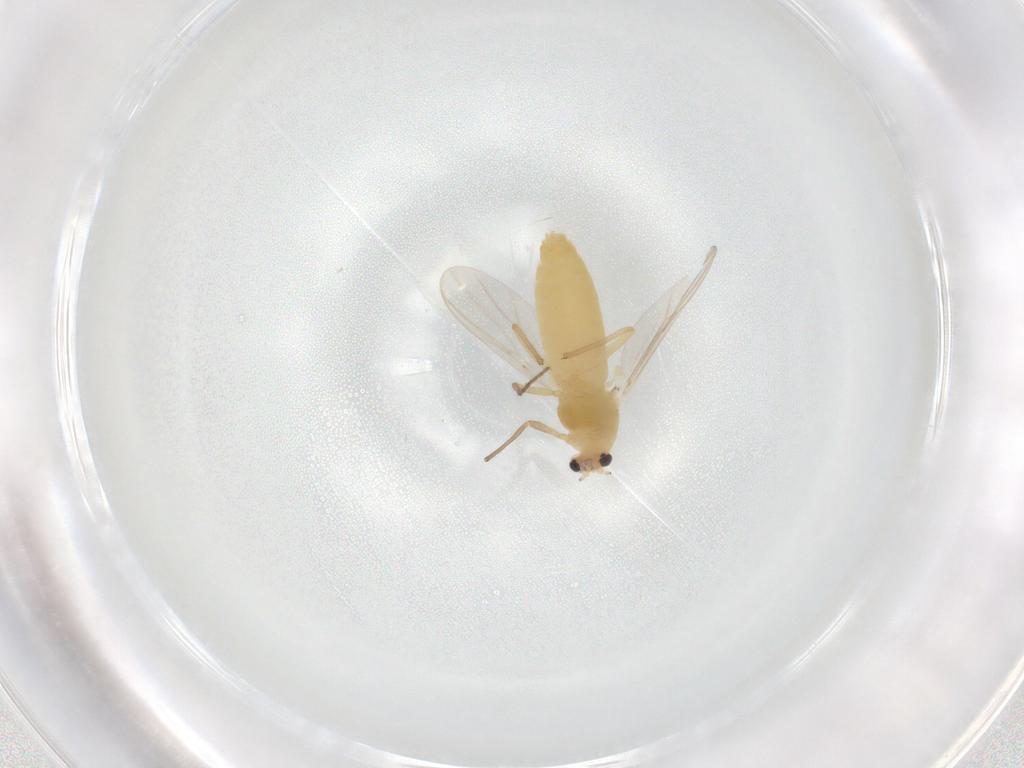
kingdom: Animalia
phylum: Arthropoda
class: Insecta
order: Diptera
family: Chironomidae
